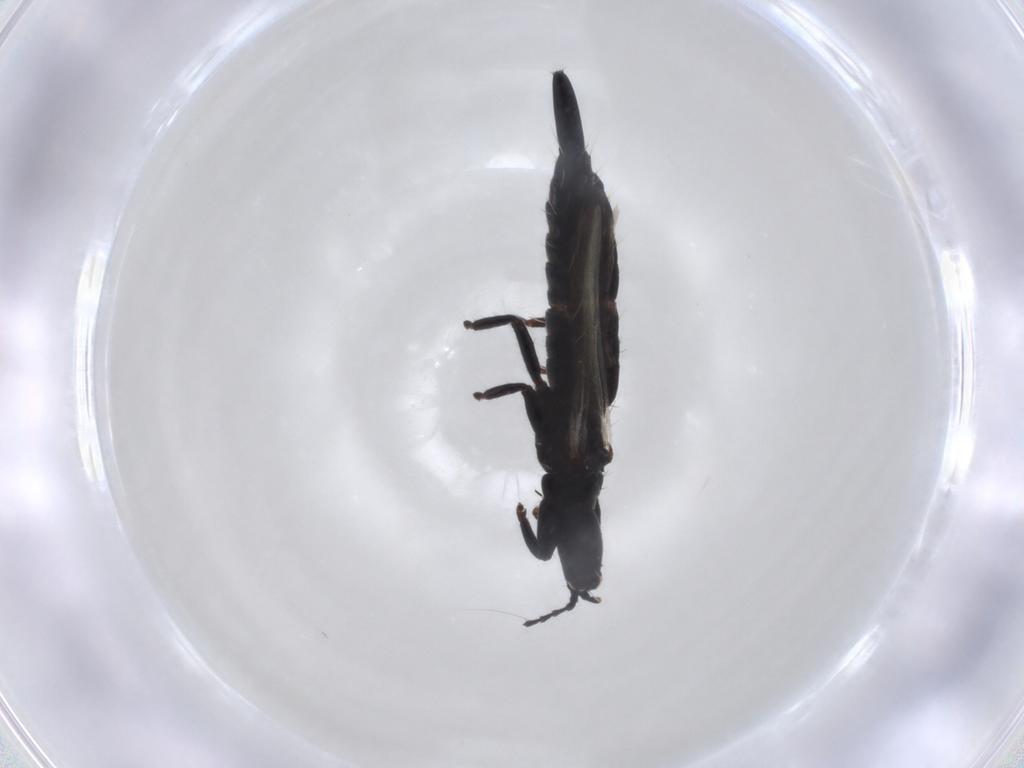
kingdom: Animalia
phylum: Arthropoda
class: Insecta
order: Thysanoptera
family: Phlaeothripidae
